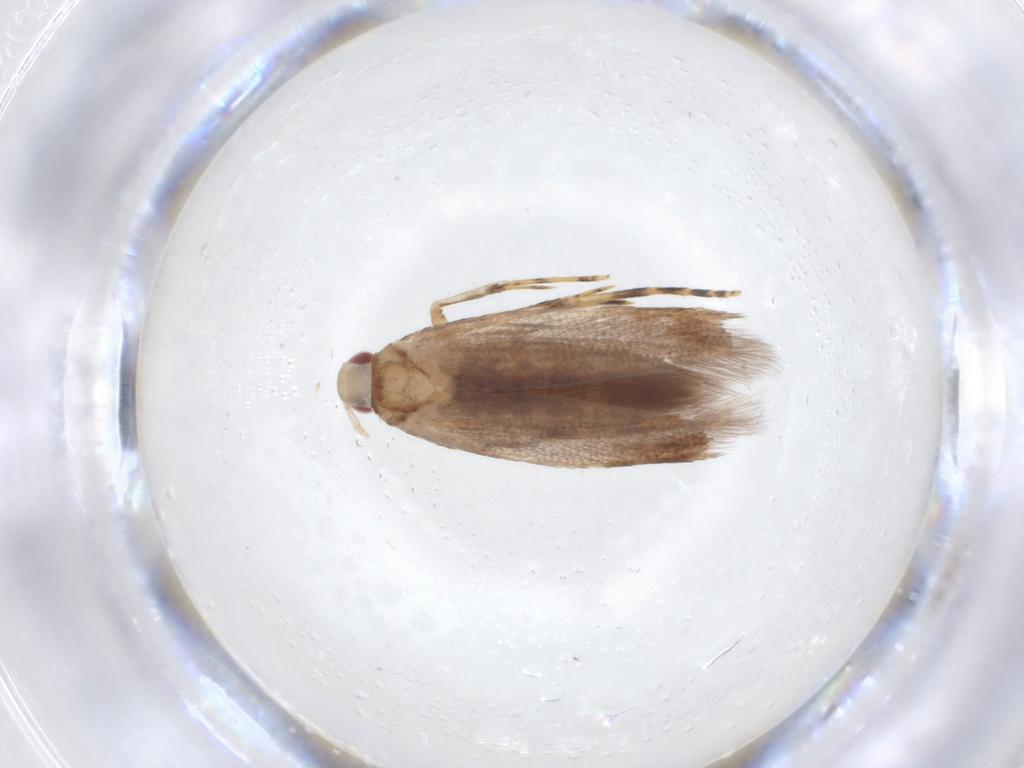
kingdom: Animalia
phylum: Arthropoda
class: Insecta
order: Lepidoptera
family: Cosmopterigidae
